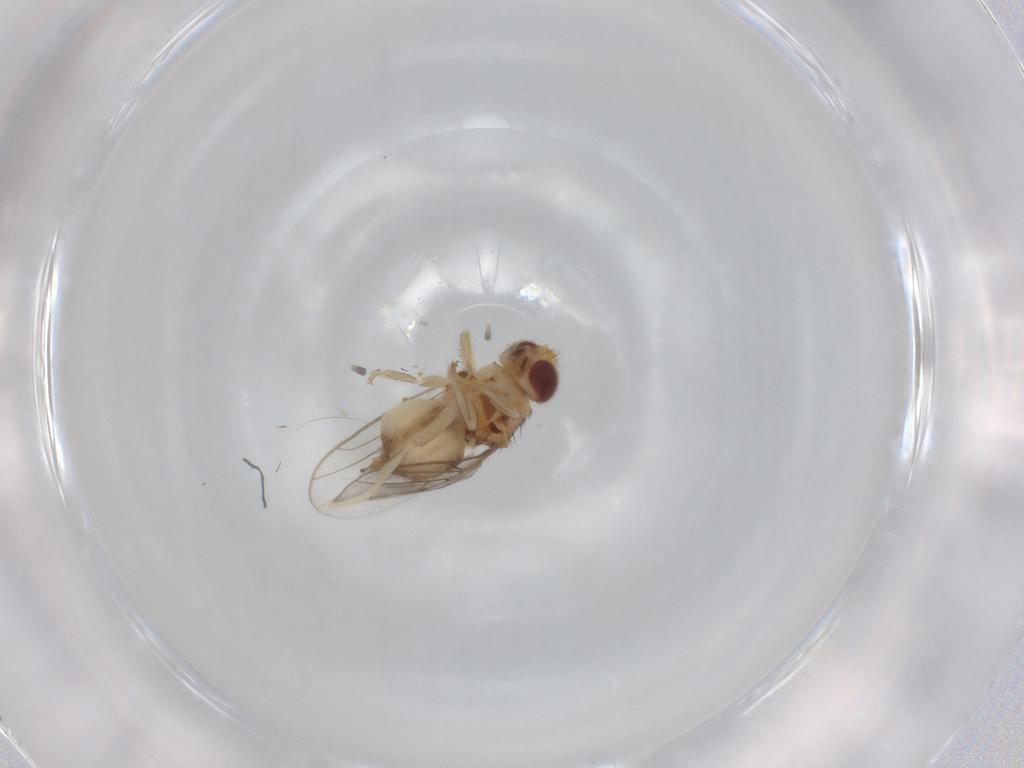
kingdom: Animalia
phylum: Arthropoda
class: Insecta
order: Diptera
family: Chloropidae
